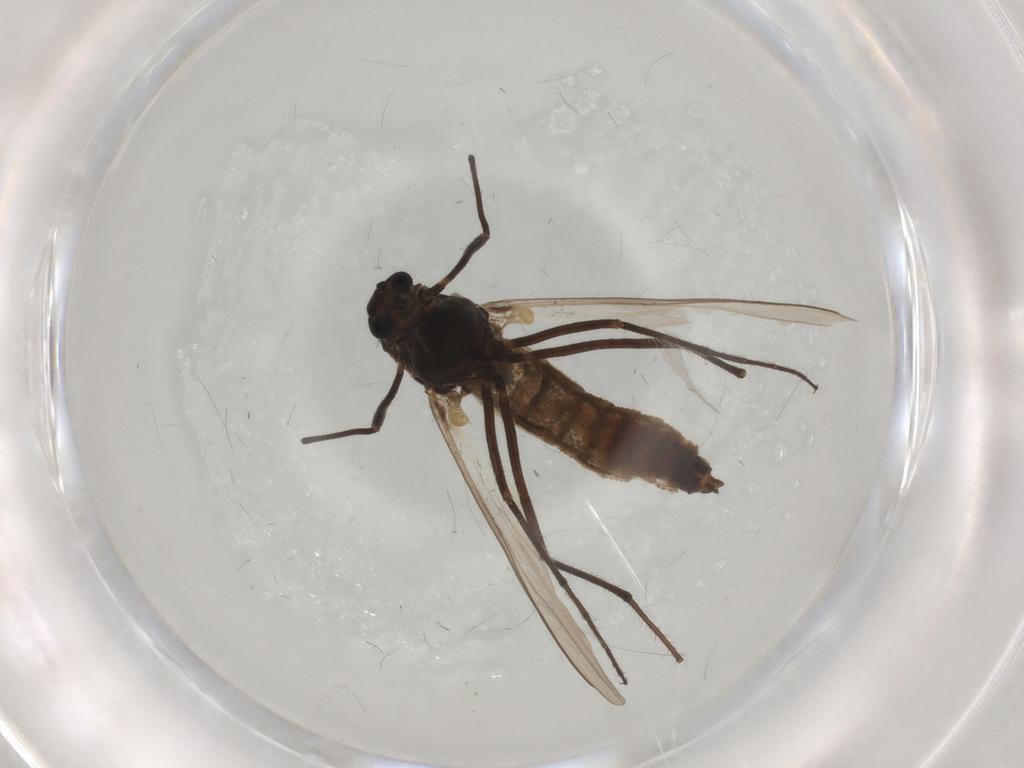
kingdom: Animalia
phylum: Arthropoda
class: Insecta
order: Diptera
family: Chironomidae
